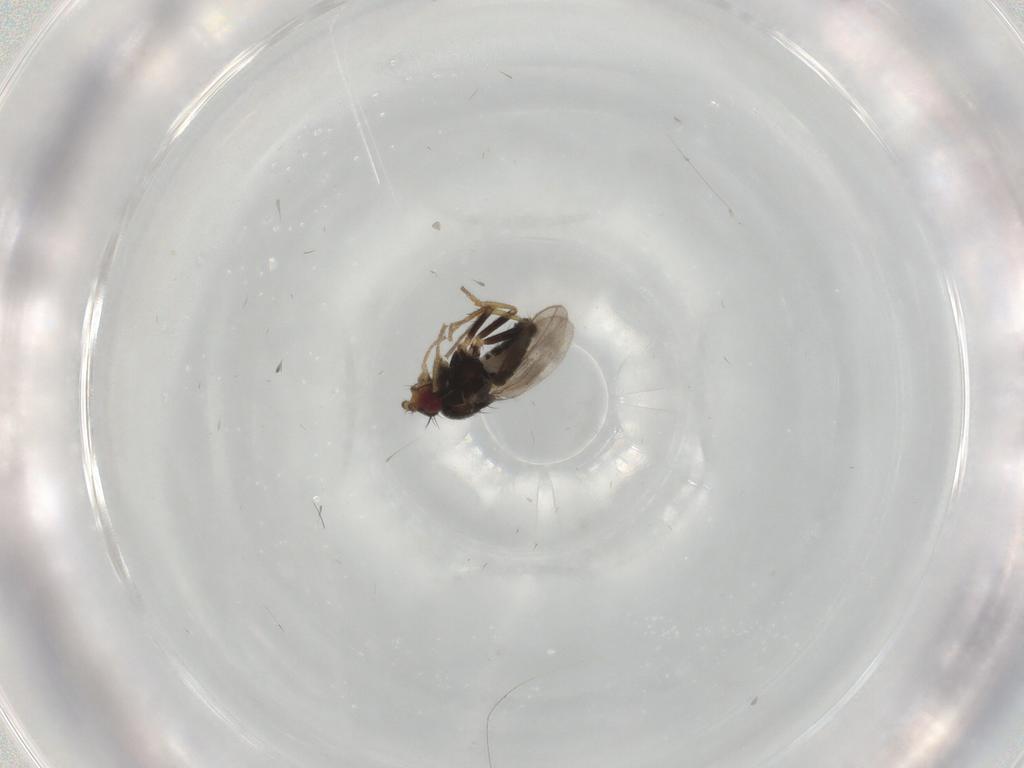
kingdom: Animalia
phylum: Arthropoda
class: Insecta
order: Diptera
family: Sphaeroceridae
